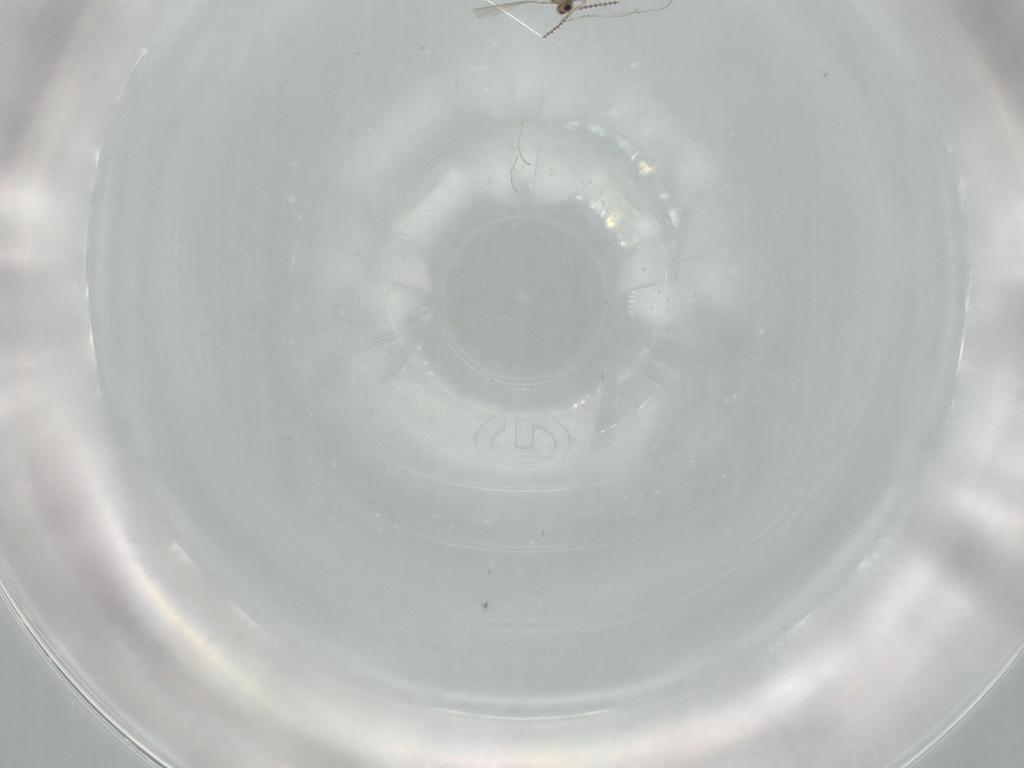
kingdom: Animalia
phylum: Arthropoda
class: Insecta
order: Diptera
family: Cecidomyiidae
